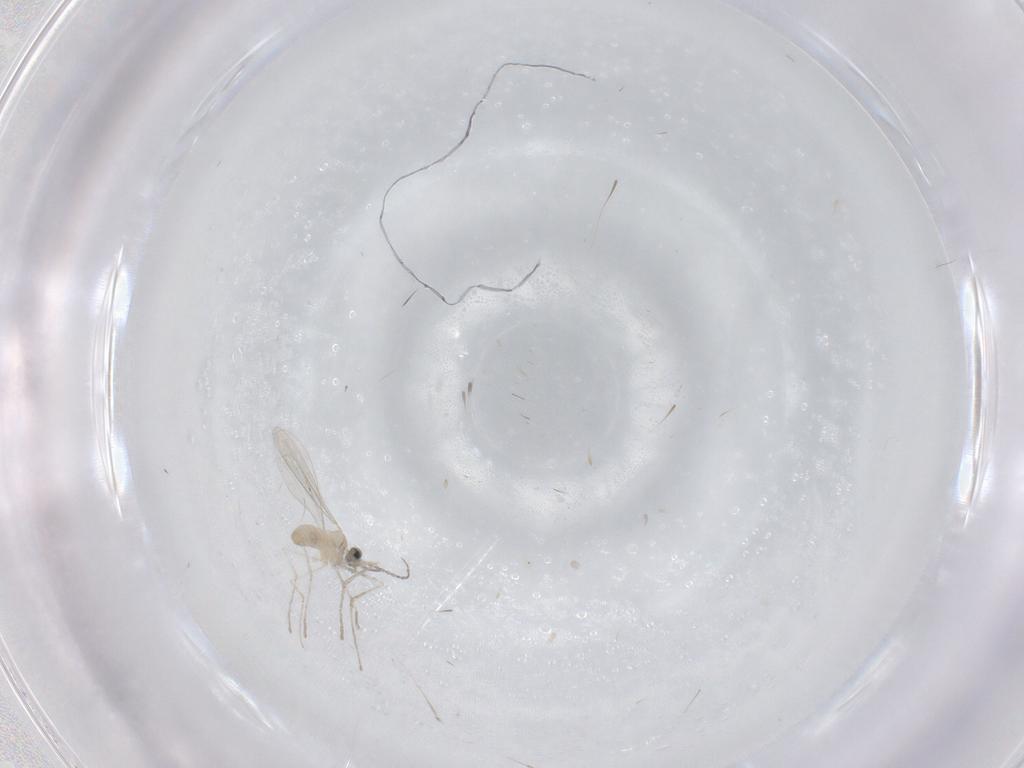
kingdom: Animalia
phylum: Arthropoda
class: Insecta
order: Diptera
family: Cecidomyiidae
